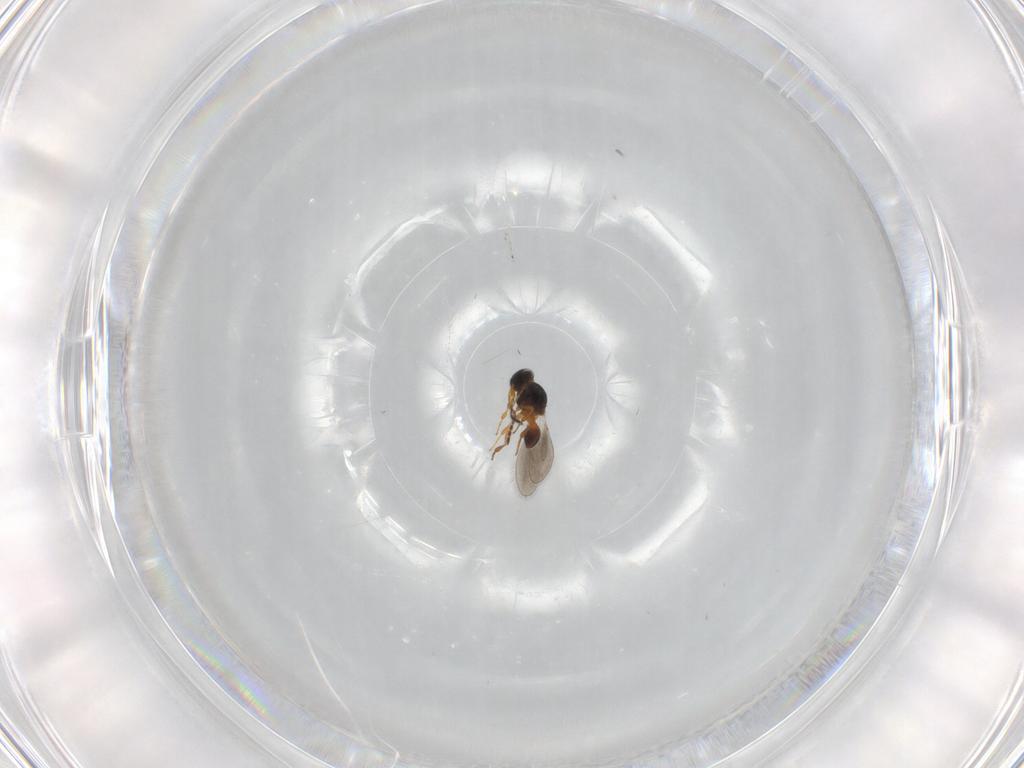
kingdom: Animalia
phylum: Arthropoda
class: Insecta
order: Hymenoptera
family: Platygastridae
